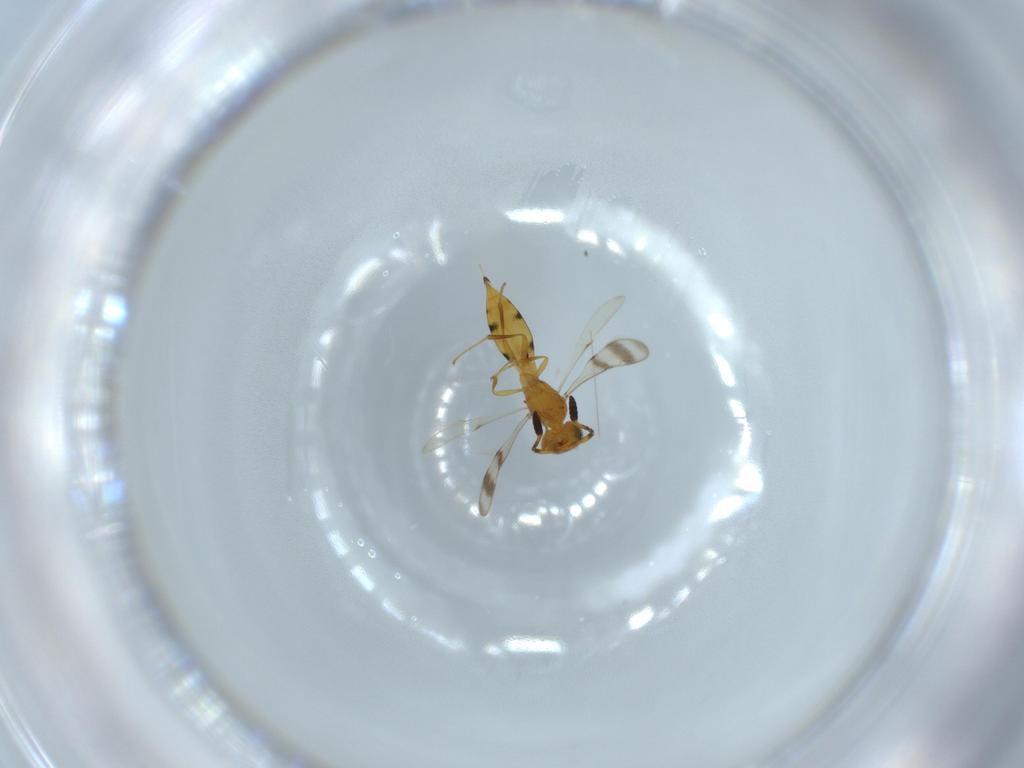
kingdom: Animalia
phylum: Arthropoda
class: Insecta
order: Hymenoptera
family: Scelionidae
